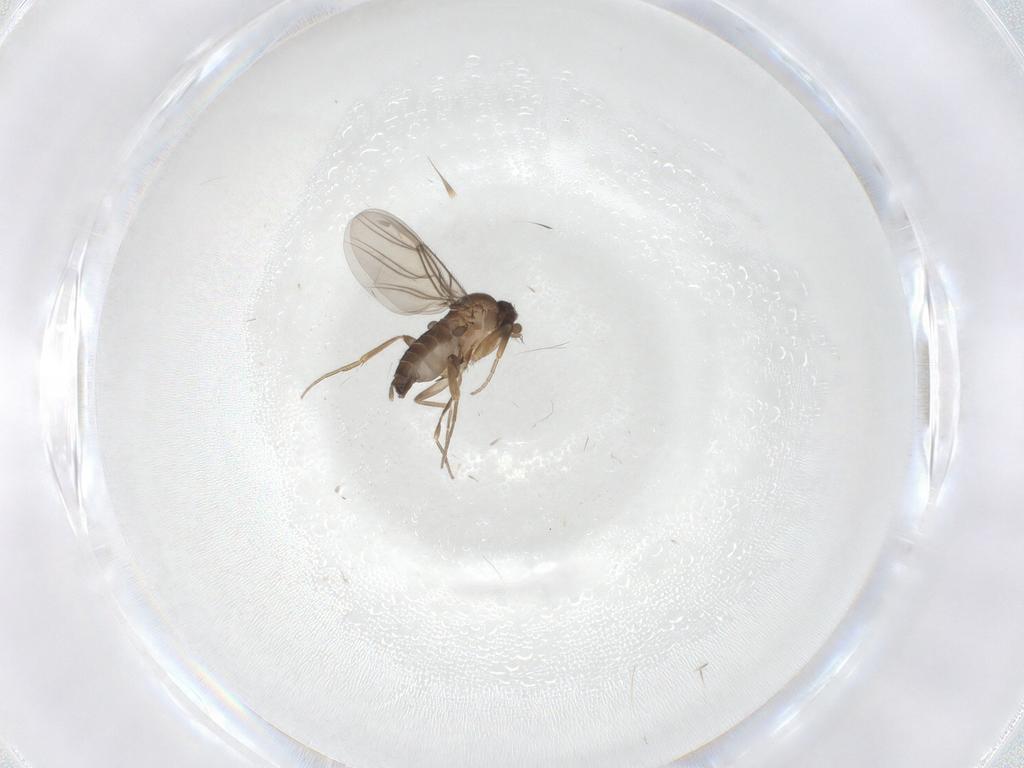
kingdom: Animalia
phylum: Arthropoda
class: Insecta
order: Diptera
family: Phoridae
